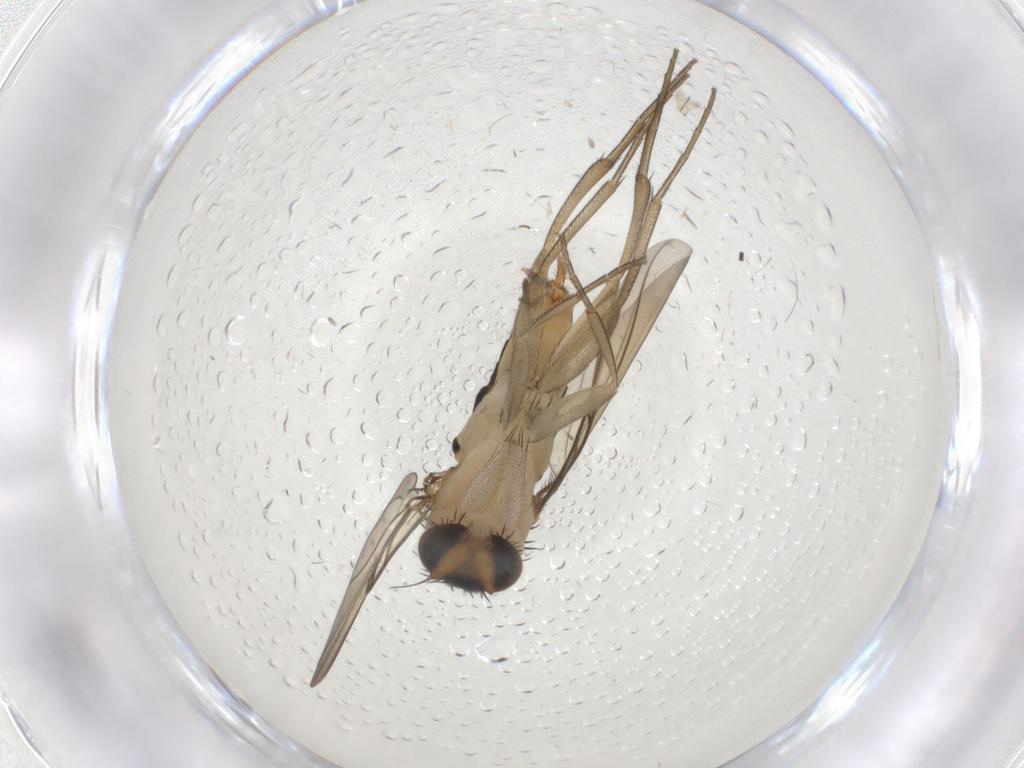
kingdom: Animalia
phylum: Arthropoda
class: Insecta
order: Diptera
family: Phoridae
